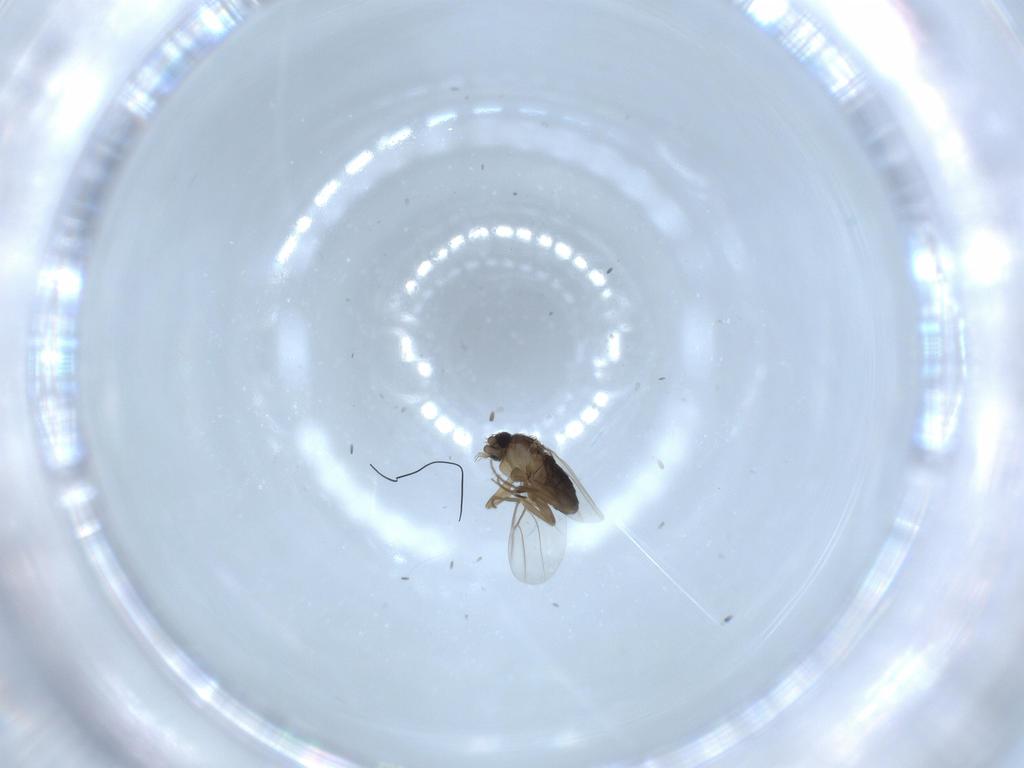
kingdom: Animalia
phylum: Arthropoda
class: Insecta
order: Diptera
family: Phoridae
